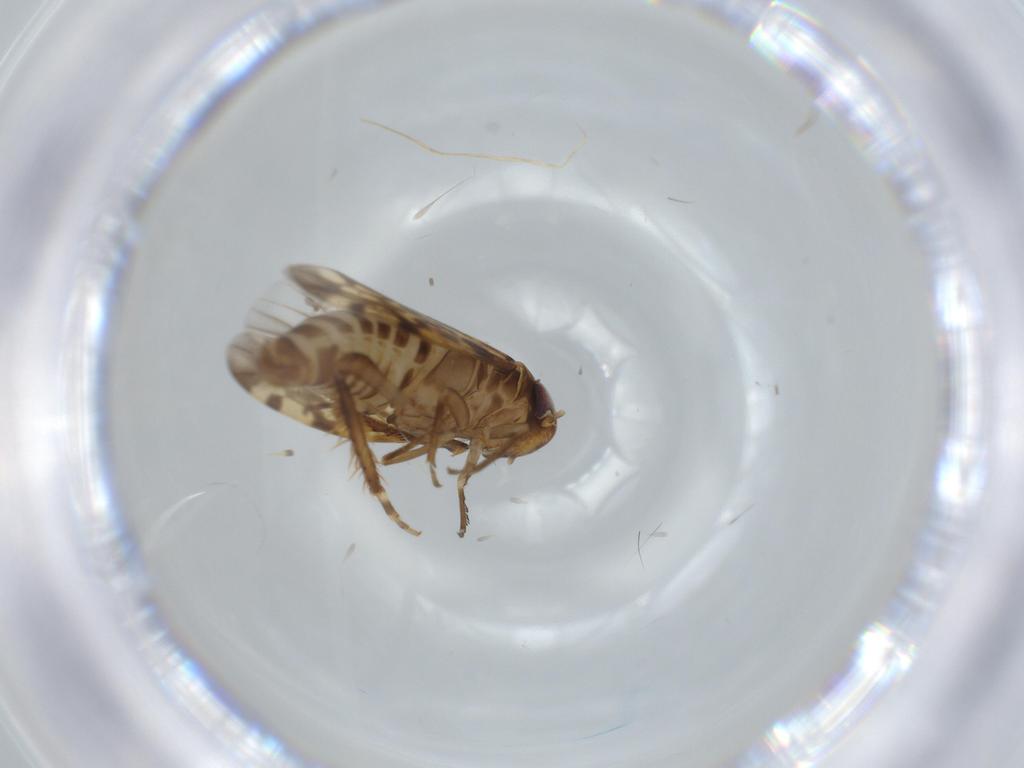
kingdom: Animalia
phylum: Arthropoda
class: Insecta
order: Hemiptera
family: Cicadellidae
